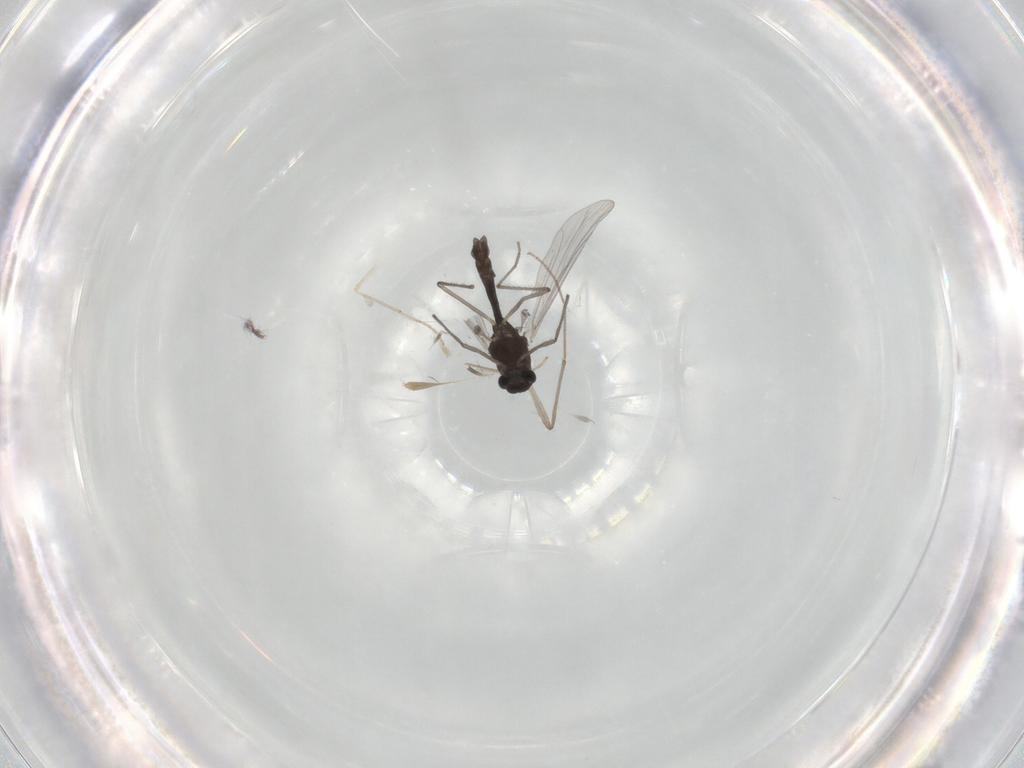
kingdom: Animalia
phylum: Arthropoda
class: Insecta
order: Diptera
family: Chironomidae
